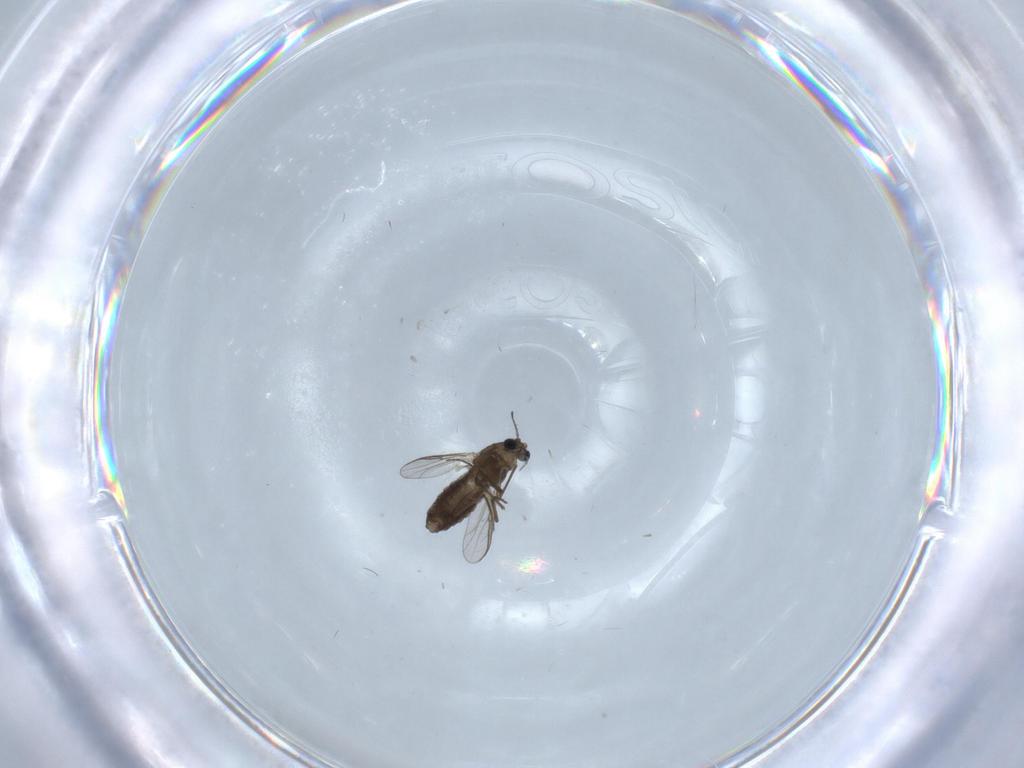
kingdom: Animalia
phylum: Arthropoda
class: Insecta
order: Diptera
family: Chironomidae
